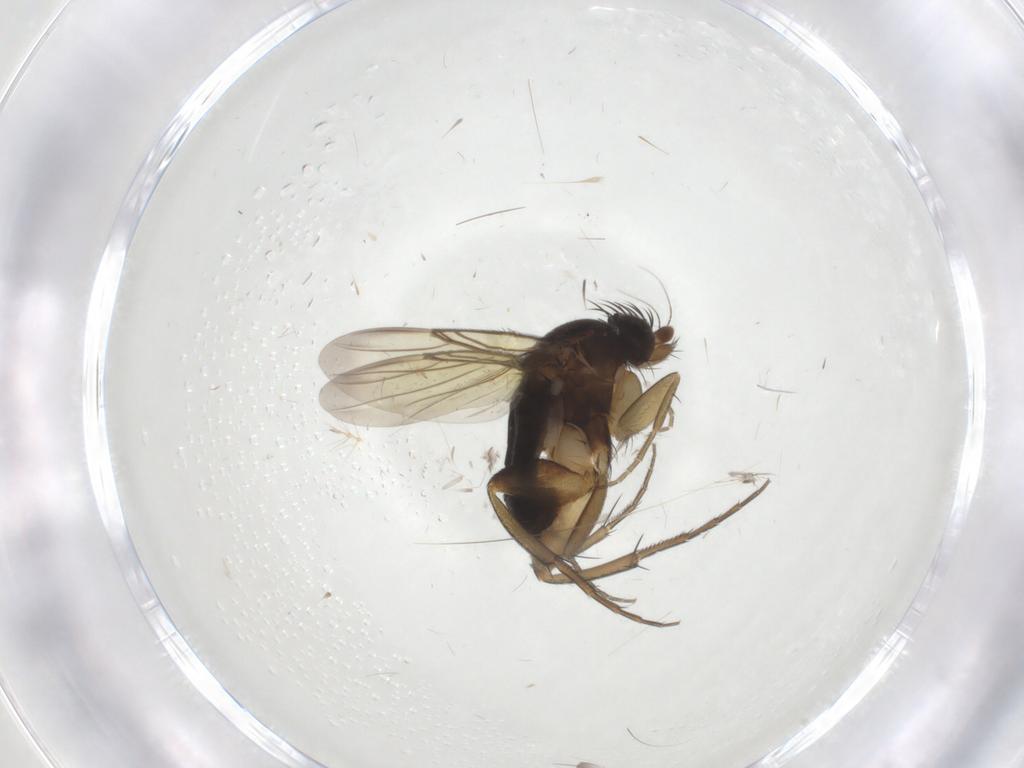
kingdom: Animalia
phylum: Arthropoda
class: Insecta
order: Diptera
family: Phoridae
